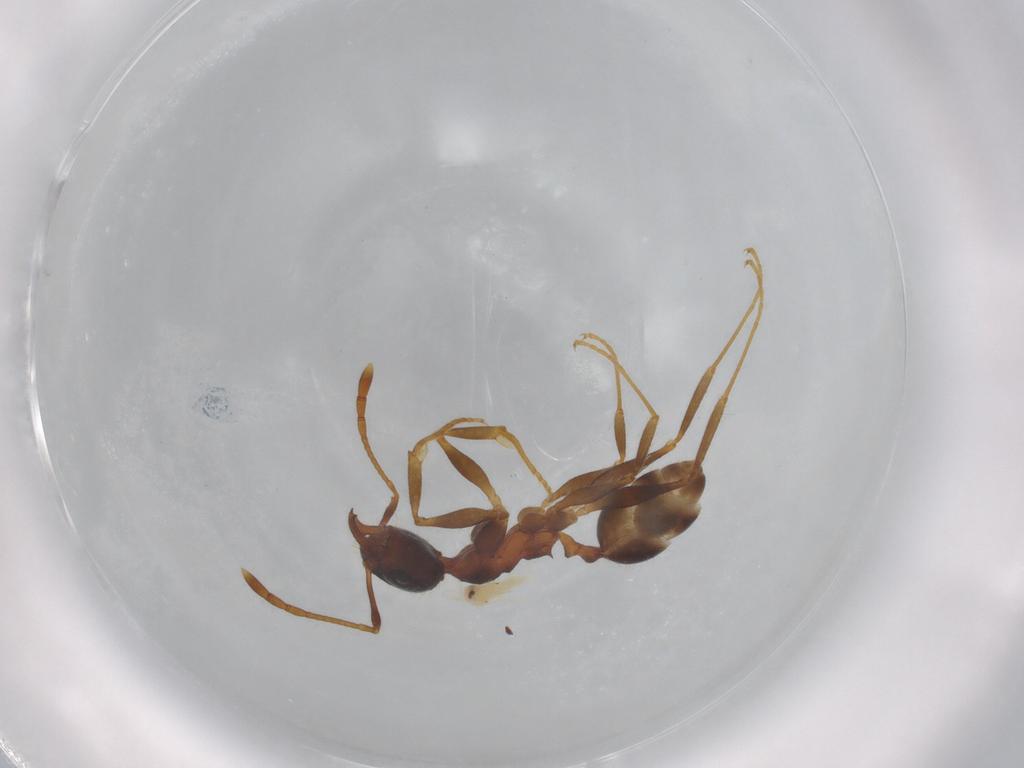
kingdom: Animalia
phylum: Arthropoda
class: Insecta
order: Hymenoptera
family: Formicidae
